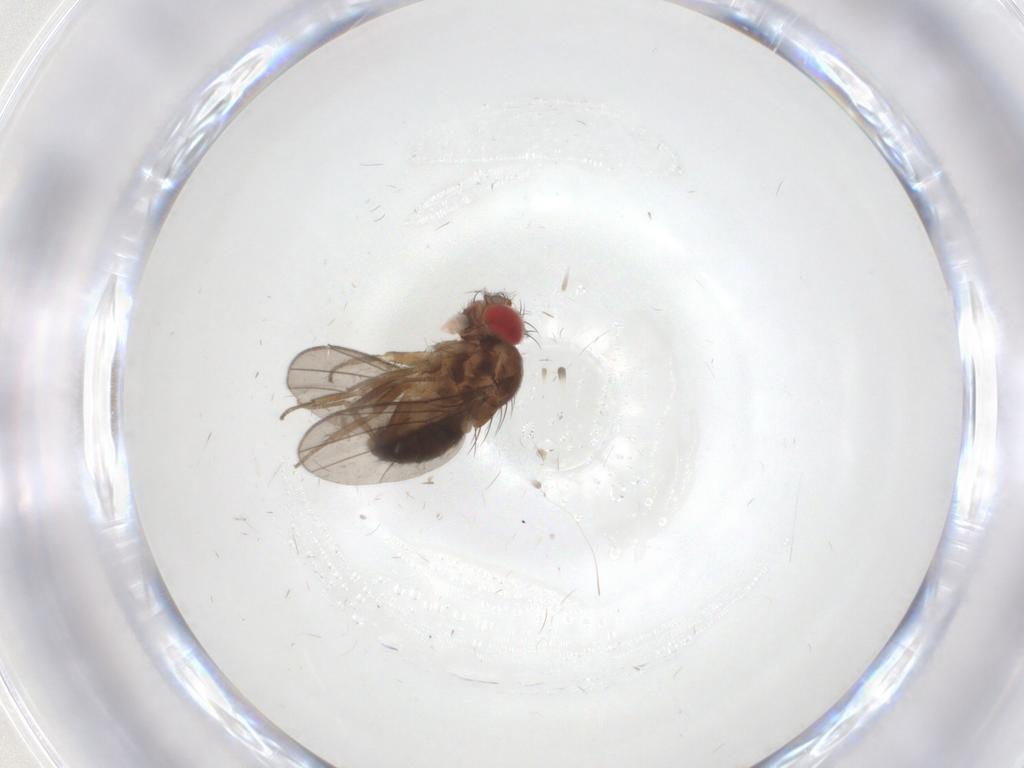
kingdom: Animalia
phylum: Arthropoda
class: Insecta
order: Diptera
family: Drosophilidae
